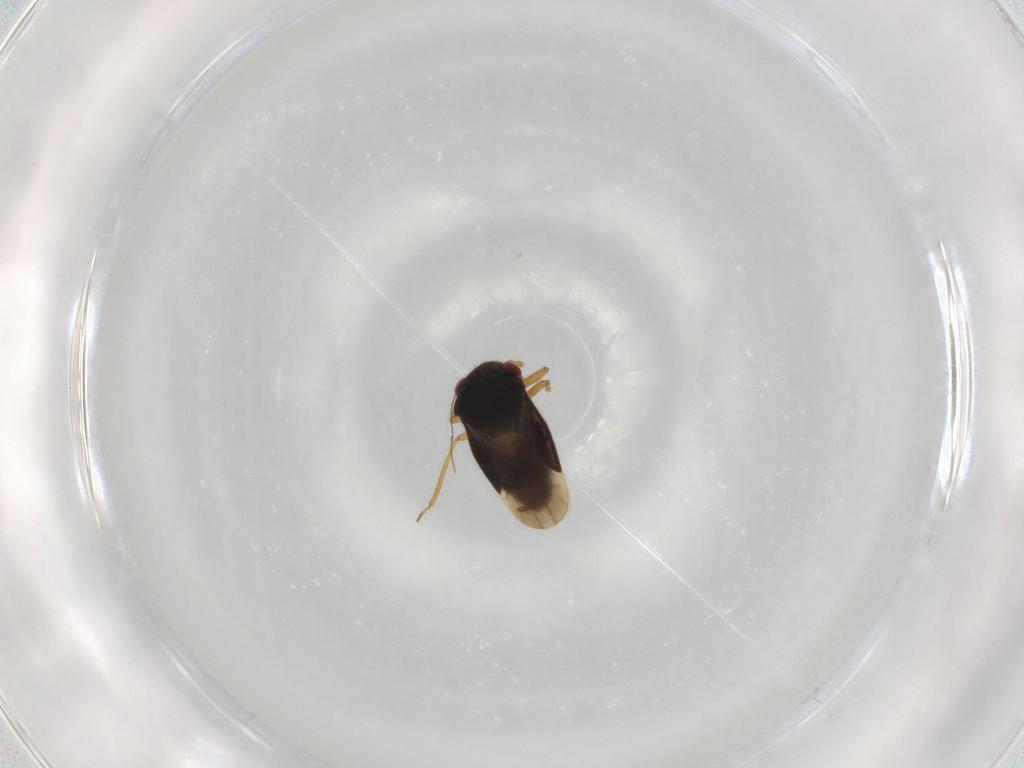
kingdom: Animalia
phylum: Arthropoda
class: Insecta
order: Hemiptera
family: Schizopteridae
